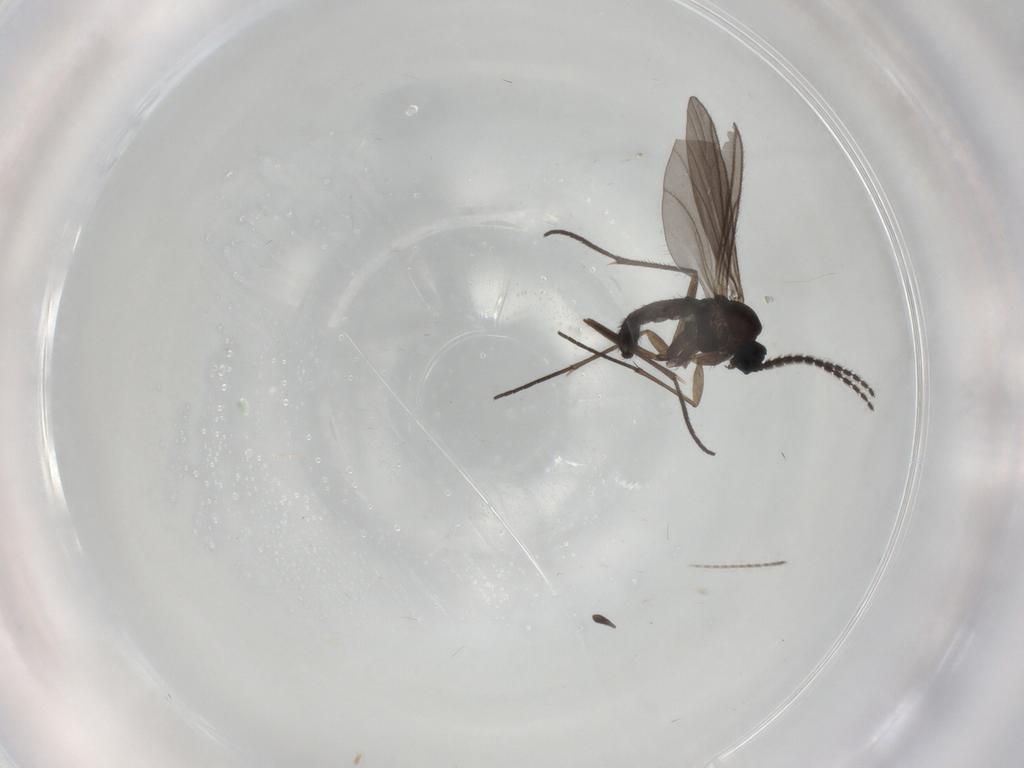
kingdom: Animalia
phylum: Arthropoda
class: Insecta
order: Diptera
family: Sciaridae
